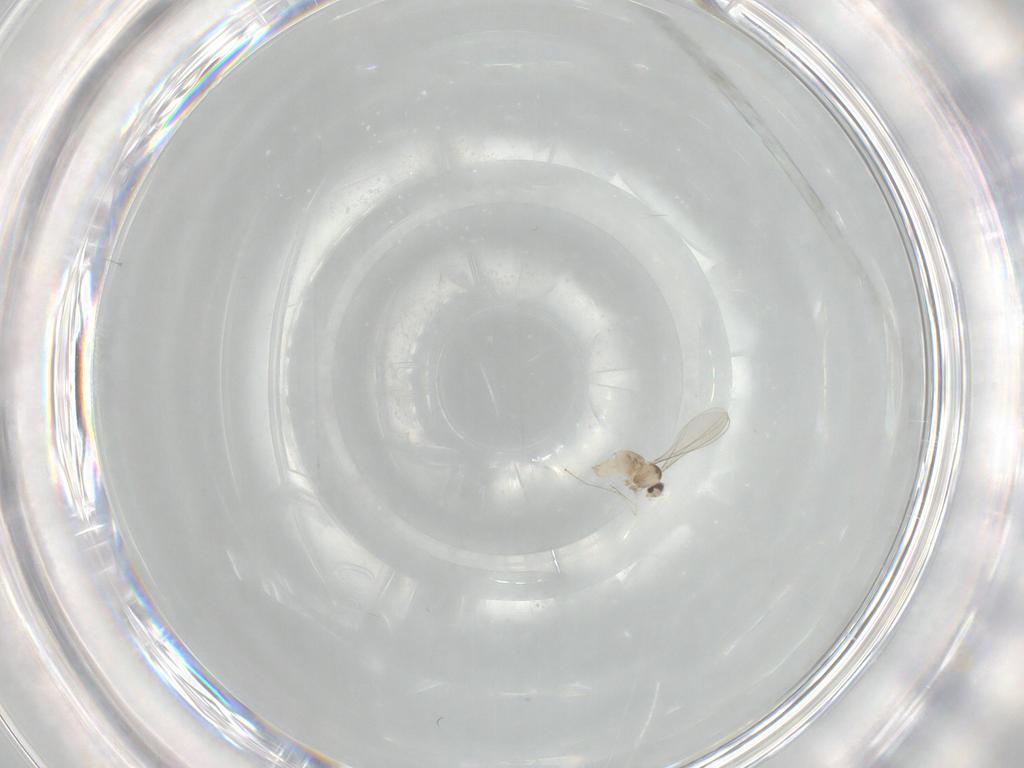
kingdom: Animalia
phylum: Arthropoda
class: Insecta
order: Diptera
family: Cecidomyiidae
